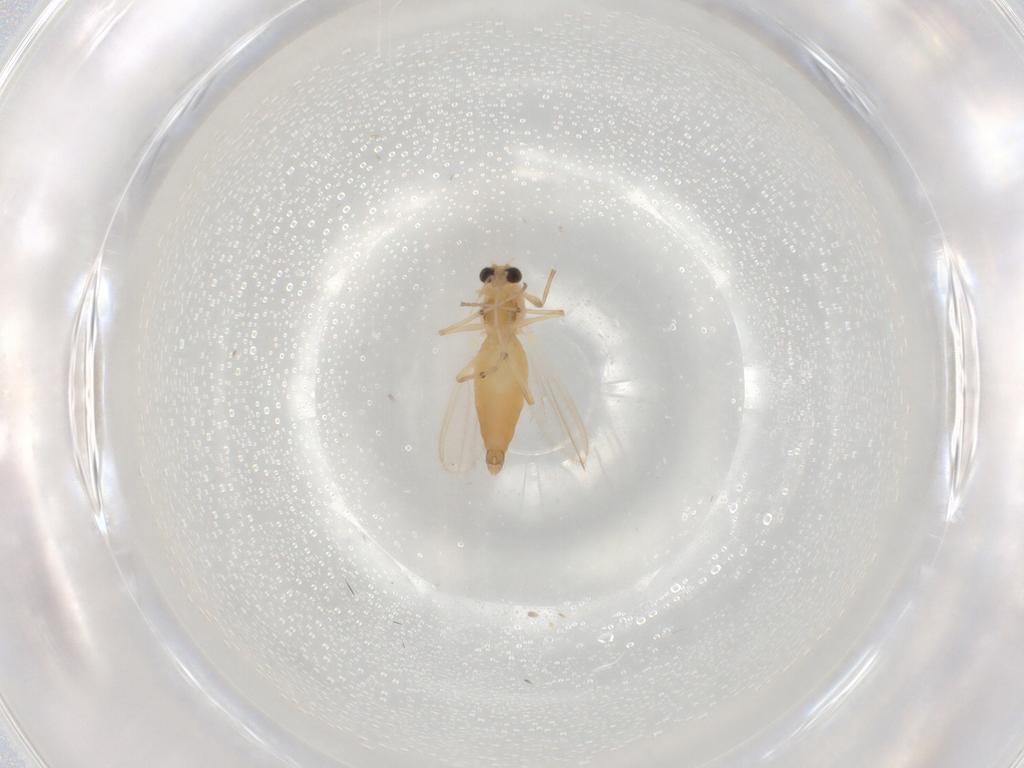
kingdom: Animalia
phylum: Arthropoda
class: Insecta
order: Diptera
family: Chironomidae
